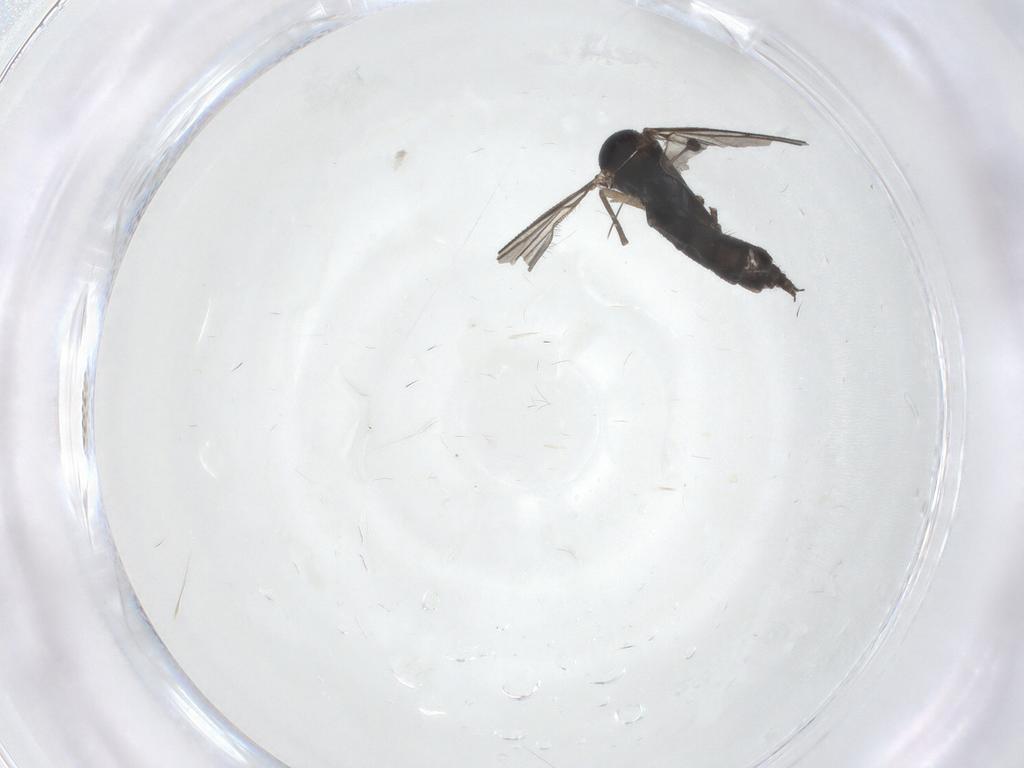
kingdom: Animalia
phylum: Arthropoda
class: Insecta
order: Diptera
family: Sciaridae
